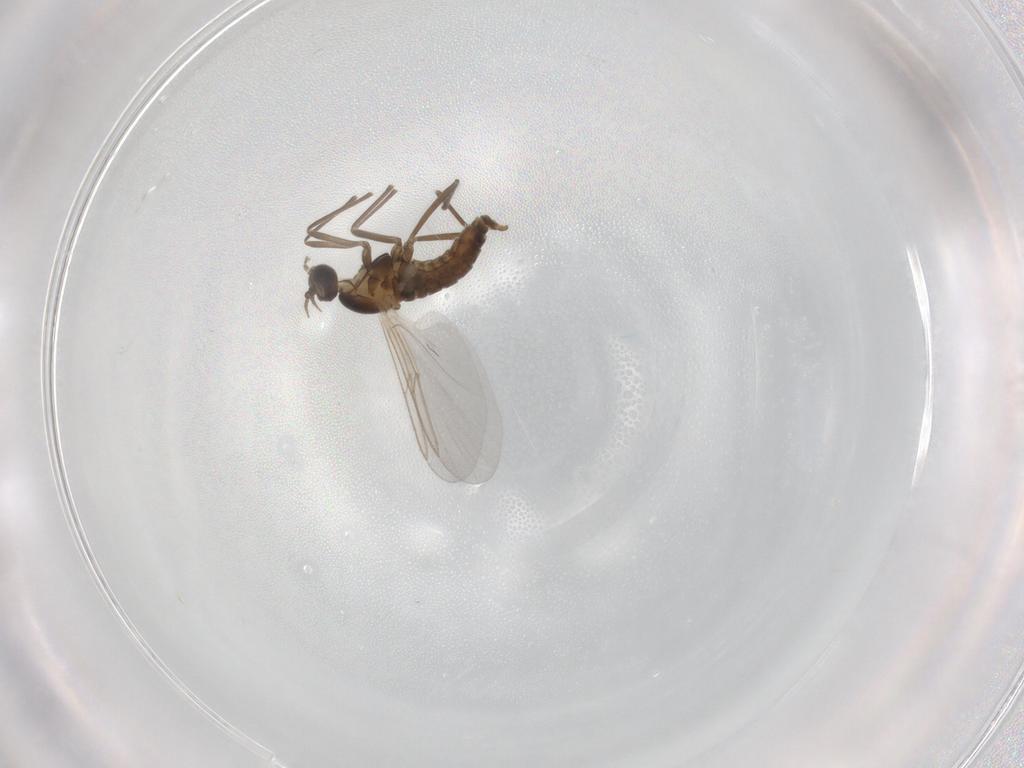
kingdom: Animalia
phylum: Arthropoda
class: Insecta
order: Diptera
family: Cecidomyiidae
